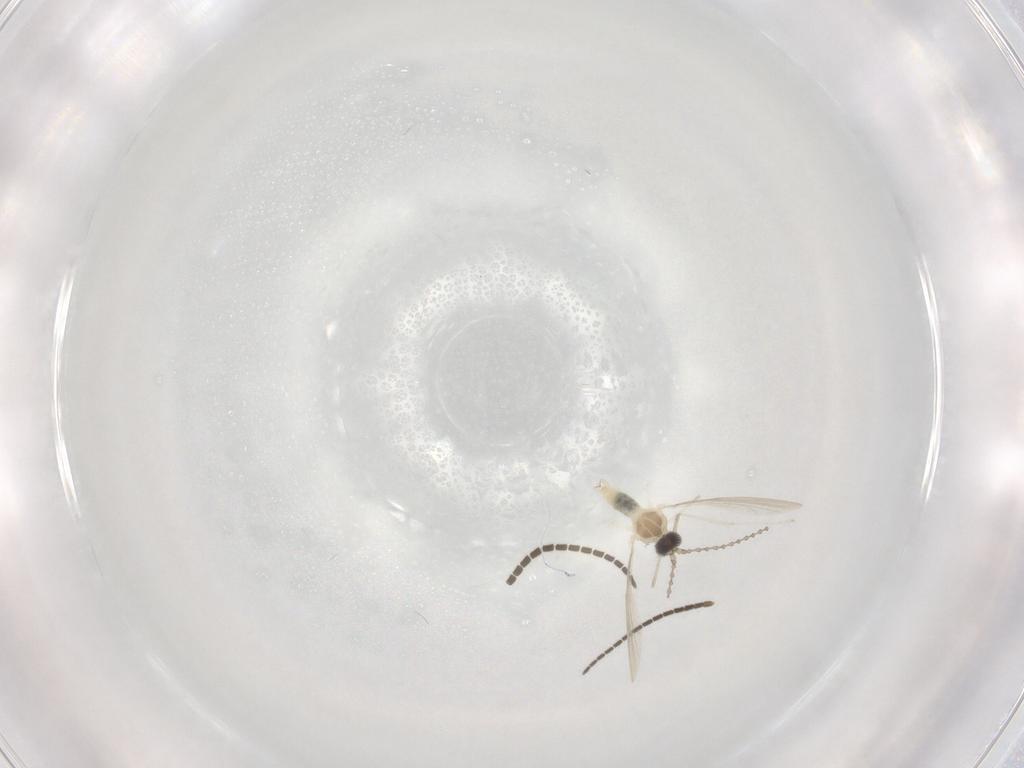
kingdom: Animalia
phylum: Arthropoda
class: Insecta
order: Diptera
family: Cecidomyiidae
